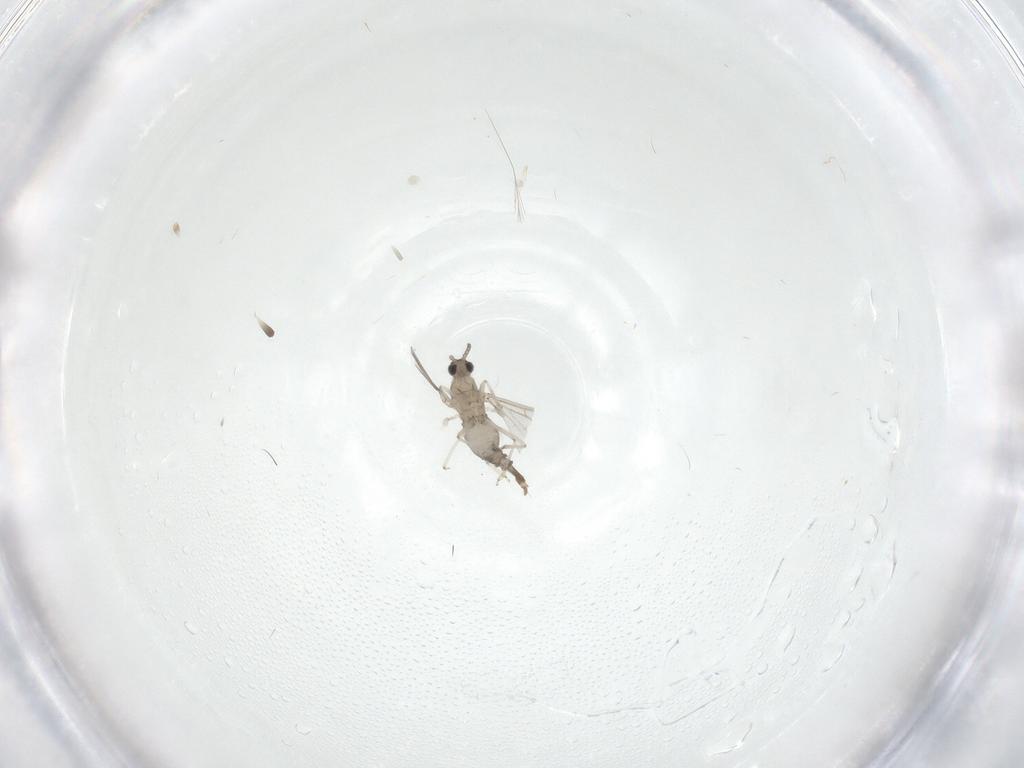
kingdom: Animalia
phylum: Arthropoda
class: Insecta
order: Diptera
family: Cecidomyiidae
